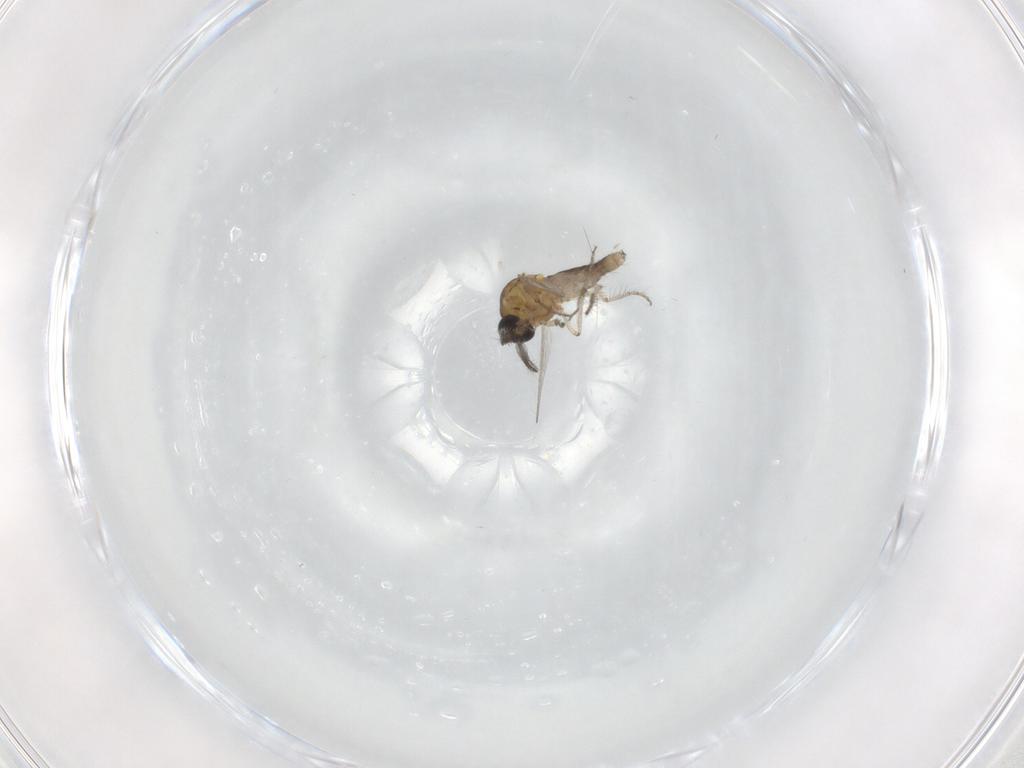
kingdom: Animalia
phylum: Arthropoda
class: Insecta
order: Diptera
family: Ceratopogonidae
